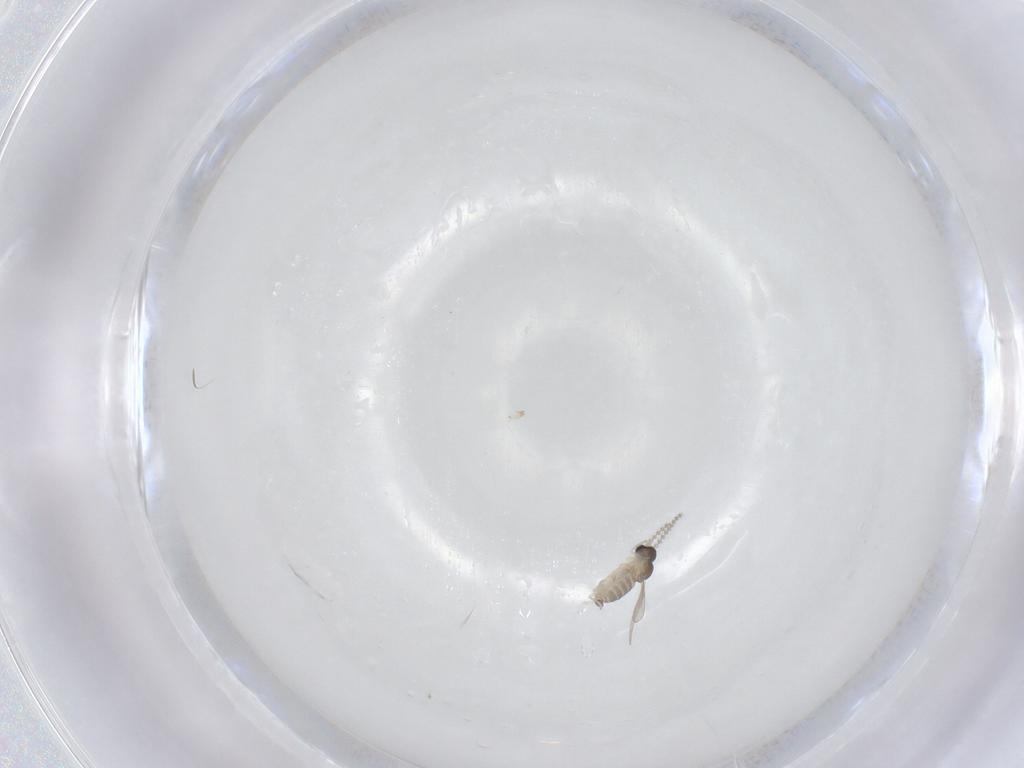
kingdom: Animalia
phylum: Arthropoda
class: Insecta
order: Diptera
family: Cecidomyiidae
